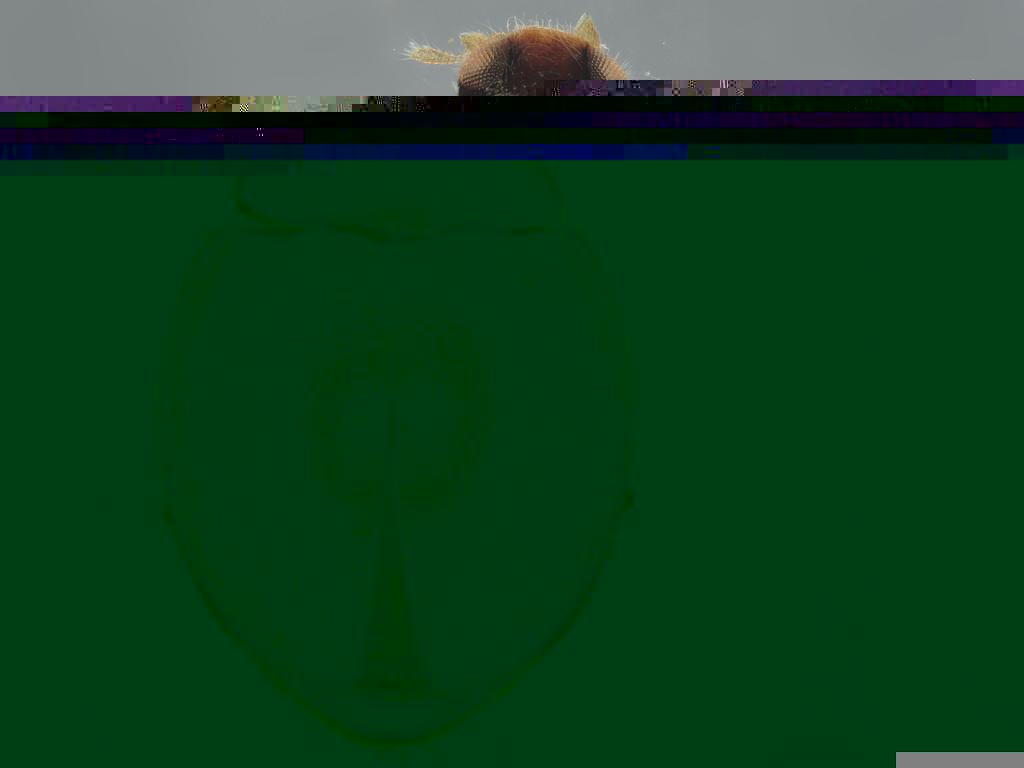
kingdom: Animalia
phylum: Arthropoda
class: Insecta
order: Coleoptera
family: Coccinellidae
